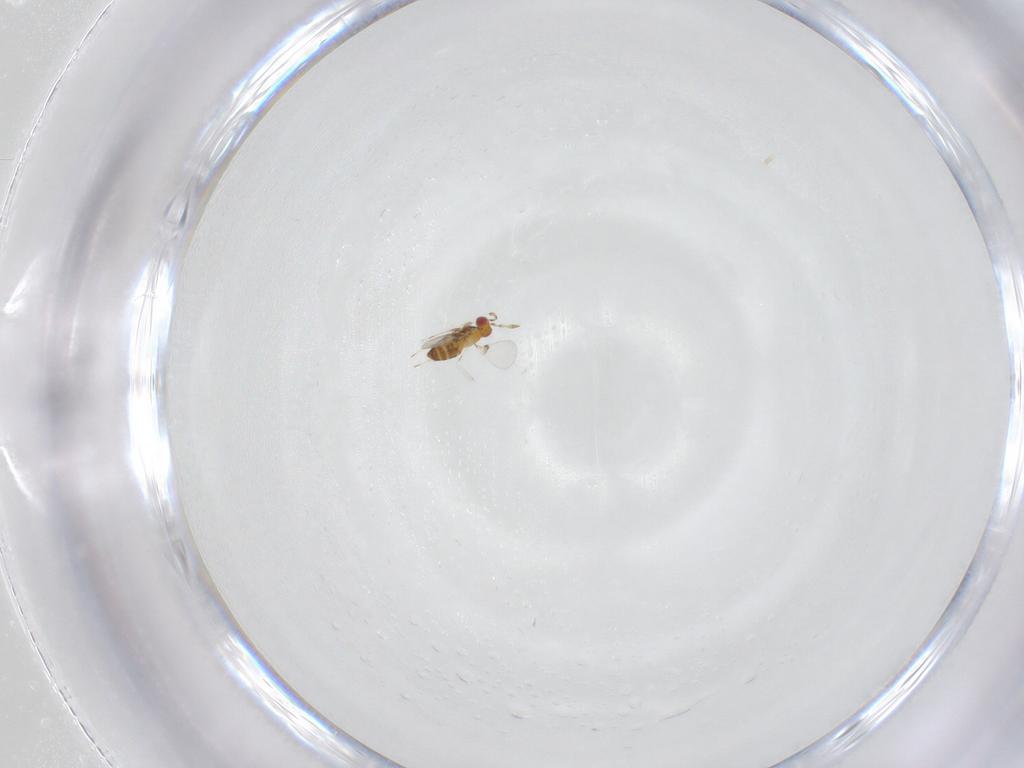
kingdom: Animalia
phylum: Arthropoda
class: Insecta
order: Hymenoptera
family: Trichogrammatidae
